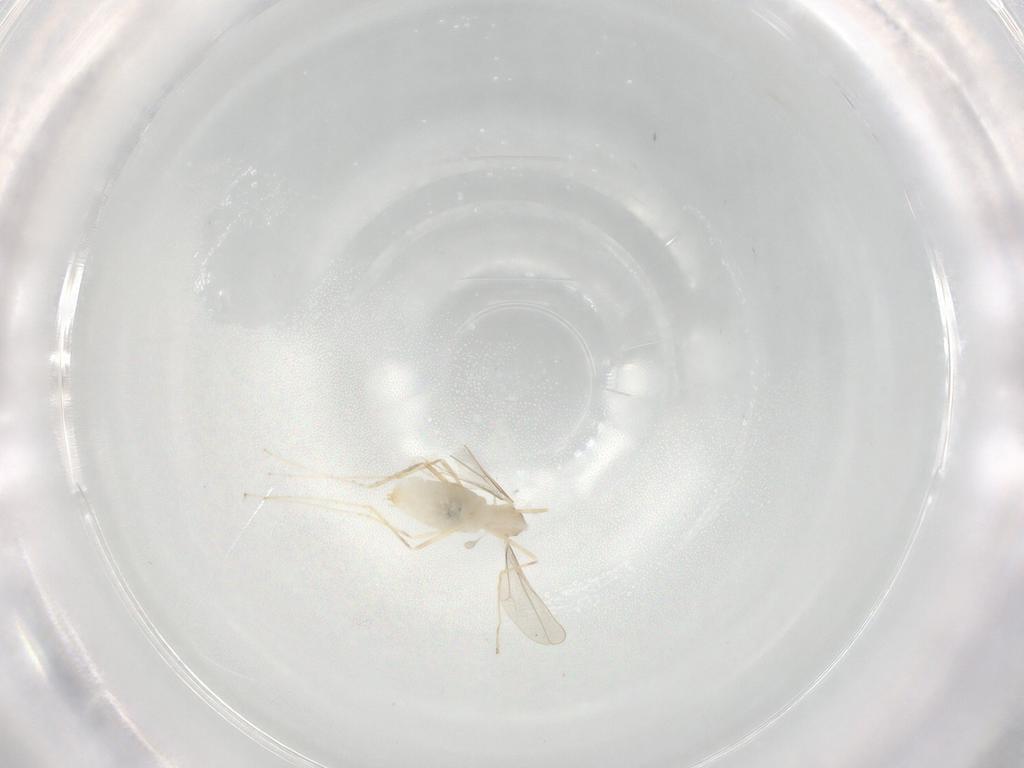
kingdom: Animalia
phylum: Arthropoda
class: Insecta
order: Diptera
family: Cecidomyiidae
